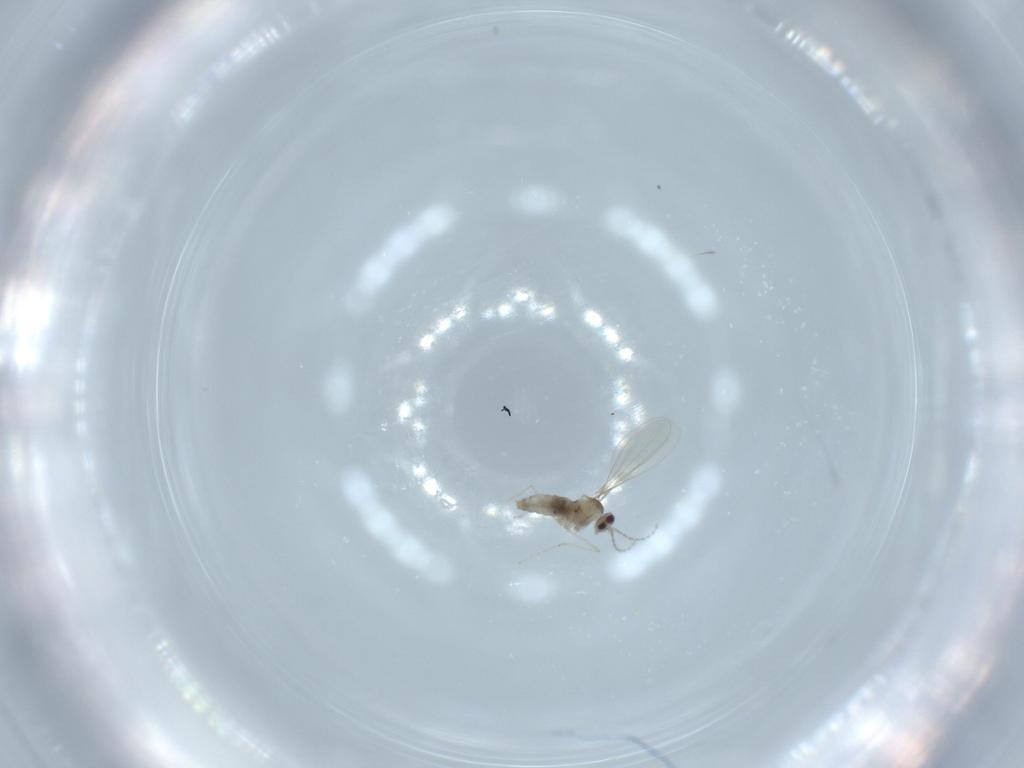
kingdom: Animalia
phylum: Arthropoda
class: Insecta
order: Diptera
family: Cecidomyiidae
